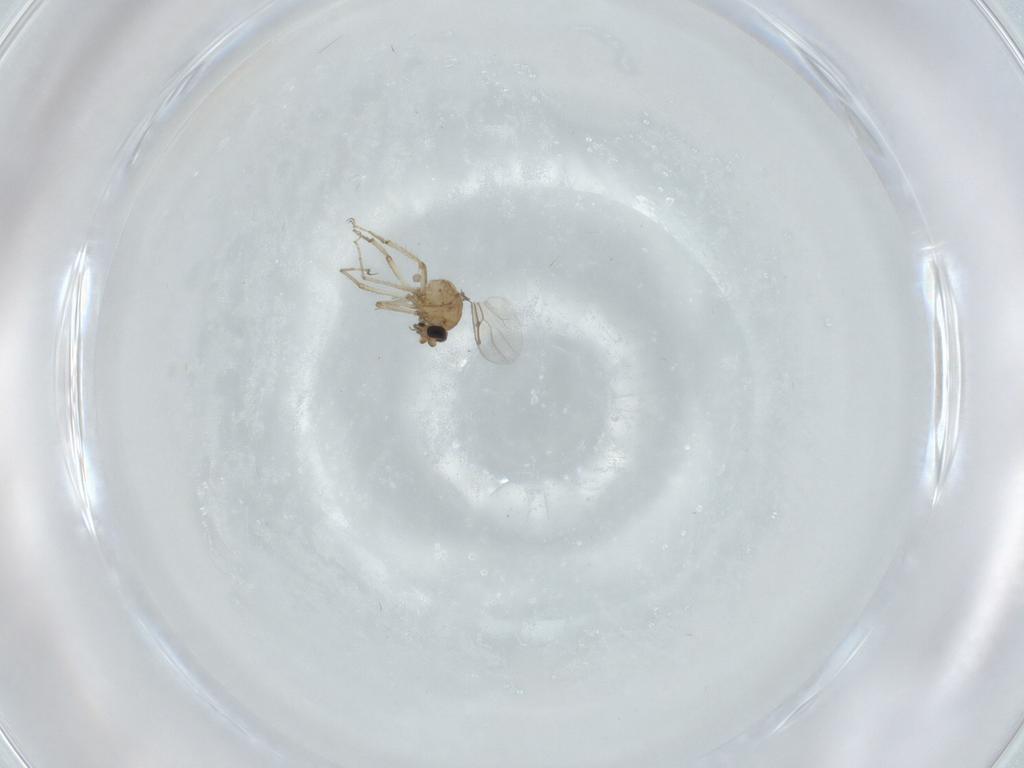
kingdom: Animalia
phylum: Arthropoda
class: Insecta
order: Diptera
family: Ceratopogonidae
